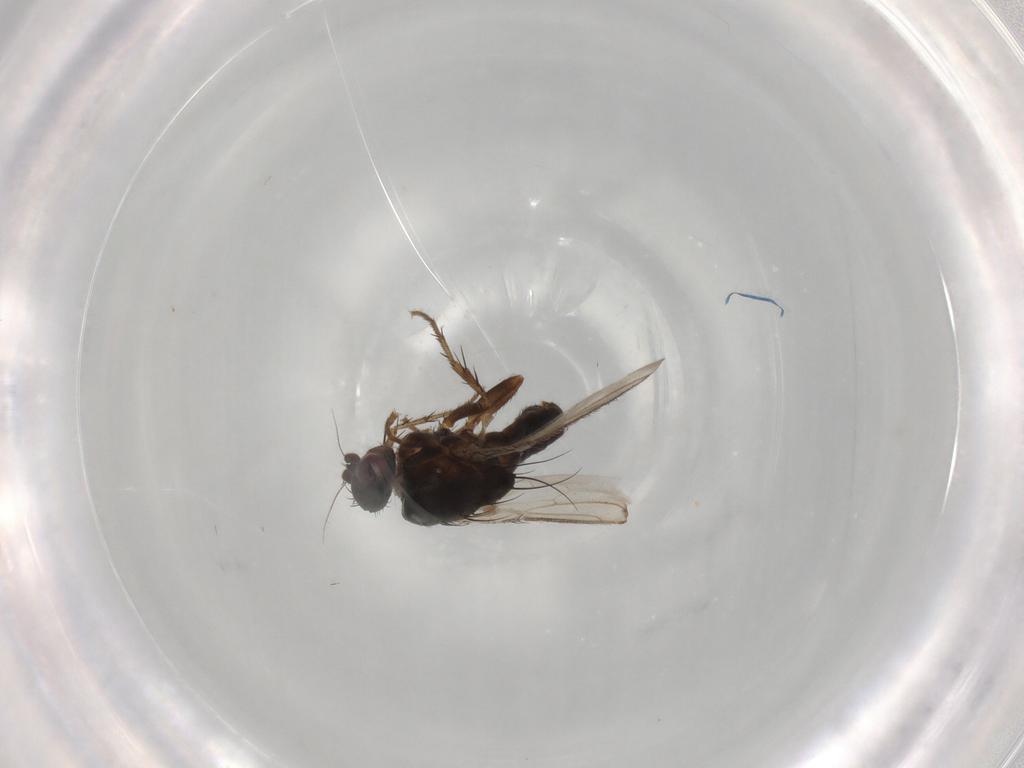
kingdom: Animalia
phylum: Arthropoda
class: Insecta
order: Diptera
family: Sphaeroceridae
